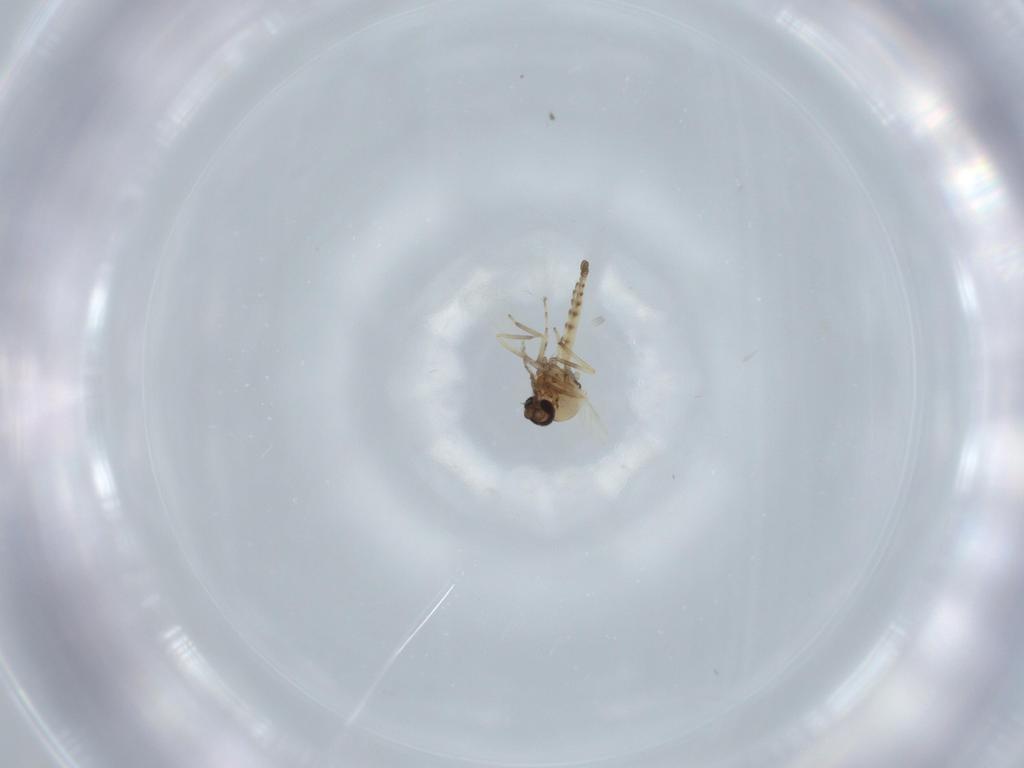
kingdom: Animalia
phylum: Arthropoda
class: Insecta
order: Diptera
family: Ceratopogonidae
